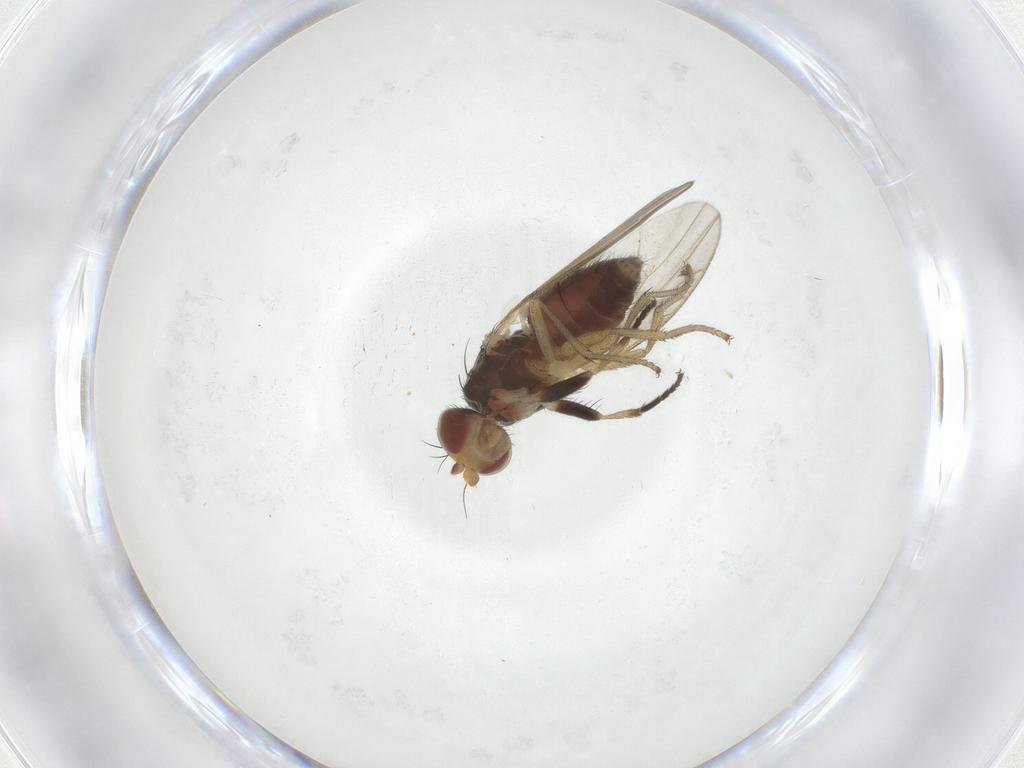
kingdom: Animalia
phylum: Arthropoda
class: Insecta
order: Diptera
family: Heleomyzidae
